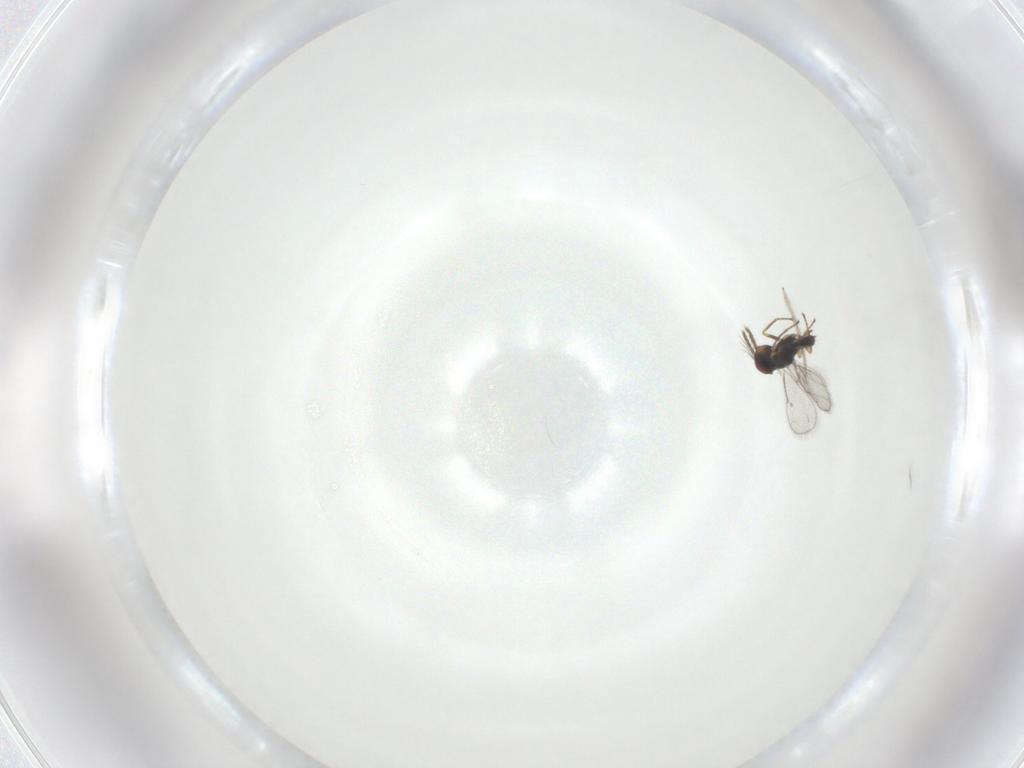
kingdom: Animalia
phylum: Arthropoda
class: Insecta
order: Hymenoptera
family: Eulophidae
